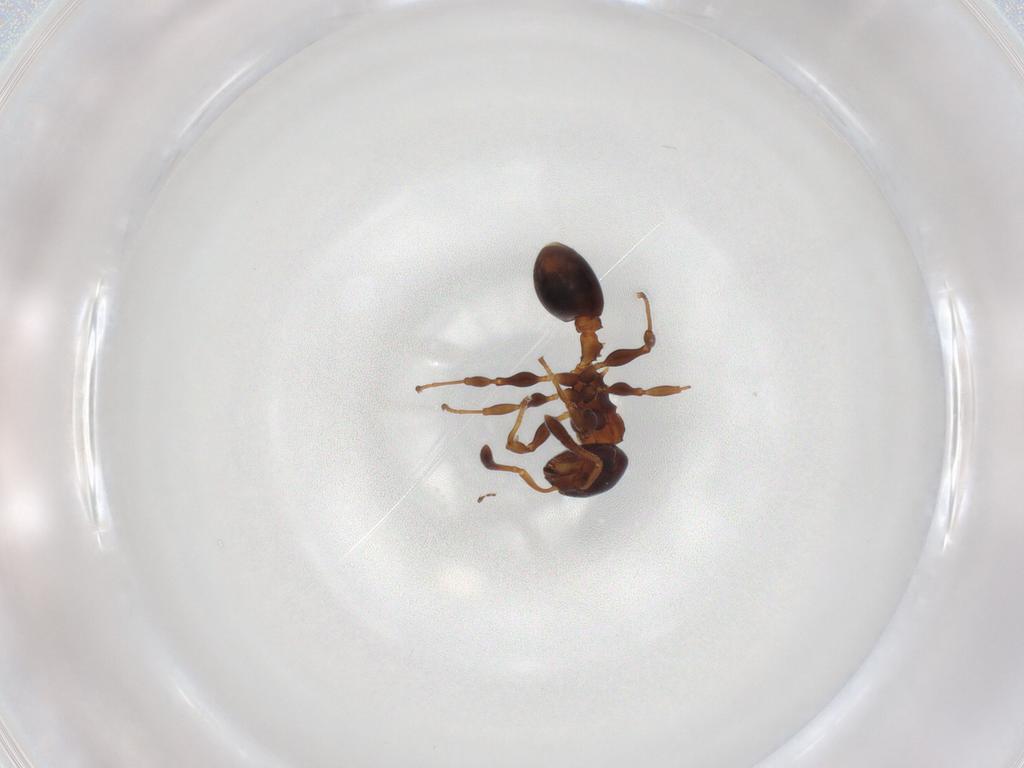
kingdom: Animalia
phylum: Arthropoda
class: Insecta
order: Hymenoptera
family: Formicidae
